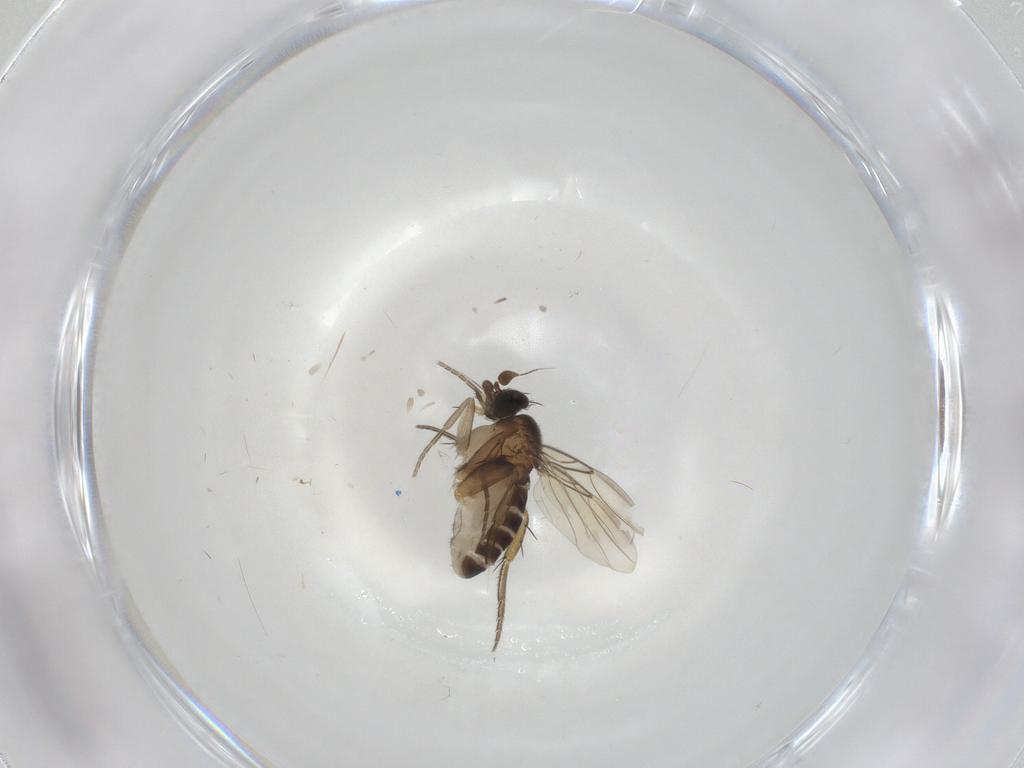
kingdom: Animalia
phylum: Arthropoda
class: Insecta
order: Diptera
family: Phoridae
